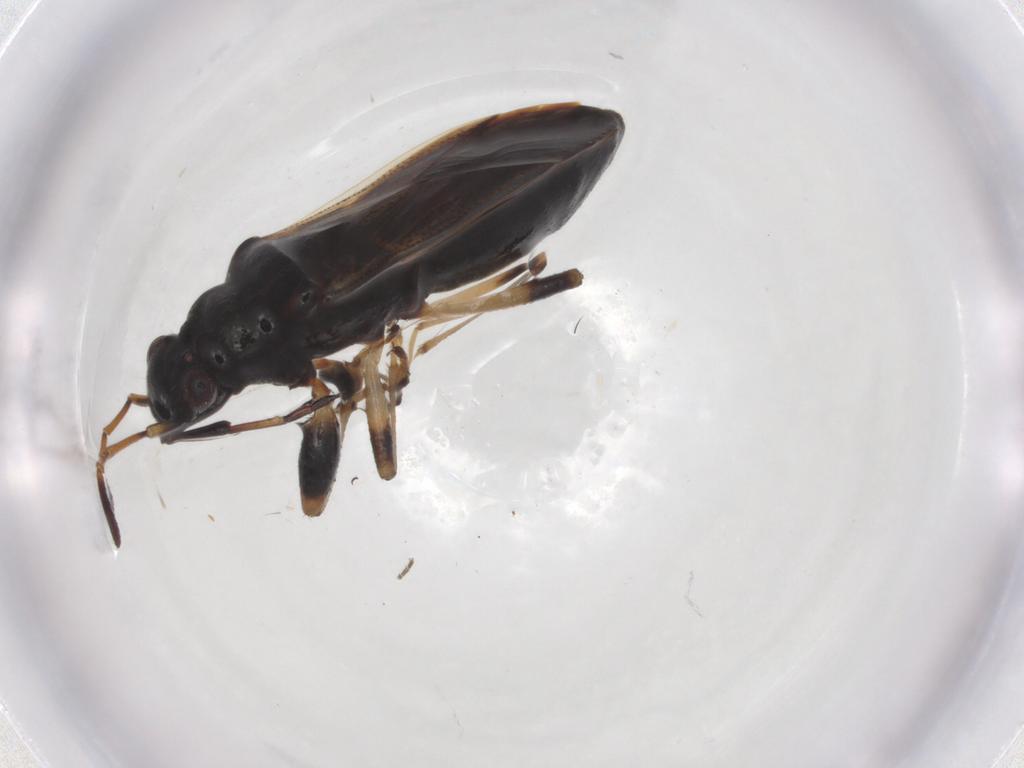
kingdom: Animalia
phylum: Arthropoda
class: Insecta
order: Hemiptera
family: Rhyparochromidae
